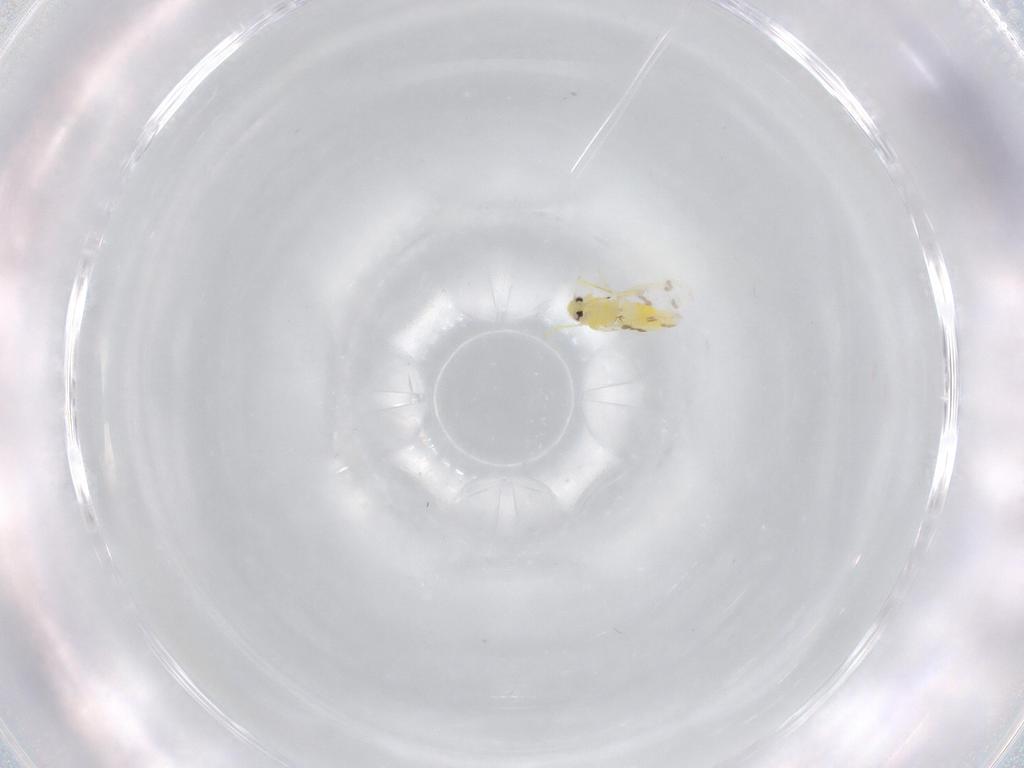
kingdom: Animalia
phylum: Arthropoda
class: Insecta
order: Hemiptera
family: Aleyrodidae
